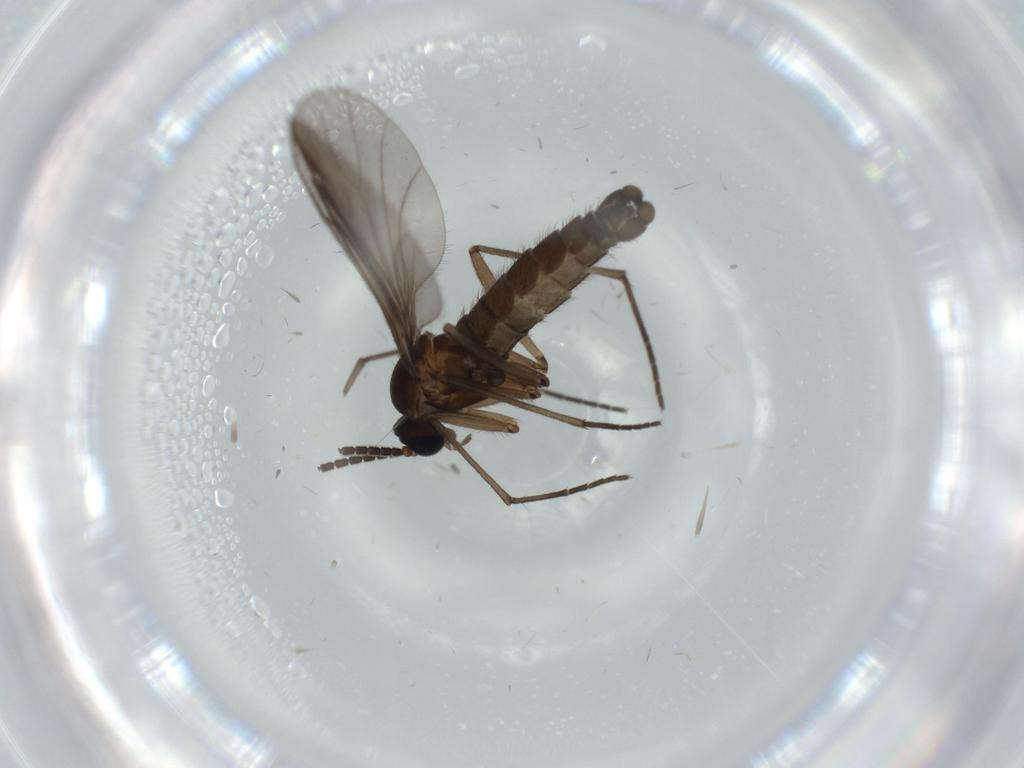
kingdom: Animalia
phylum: Arthropoda
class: Insecta
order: Diptera
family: Sciaridae
